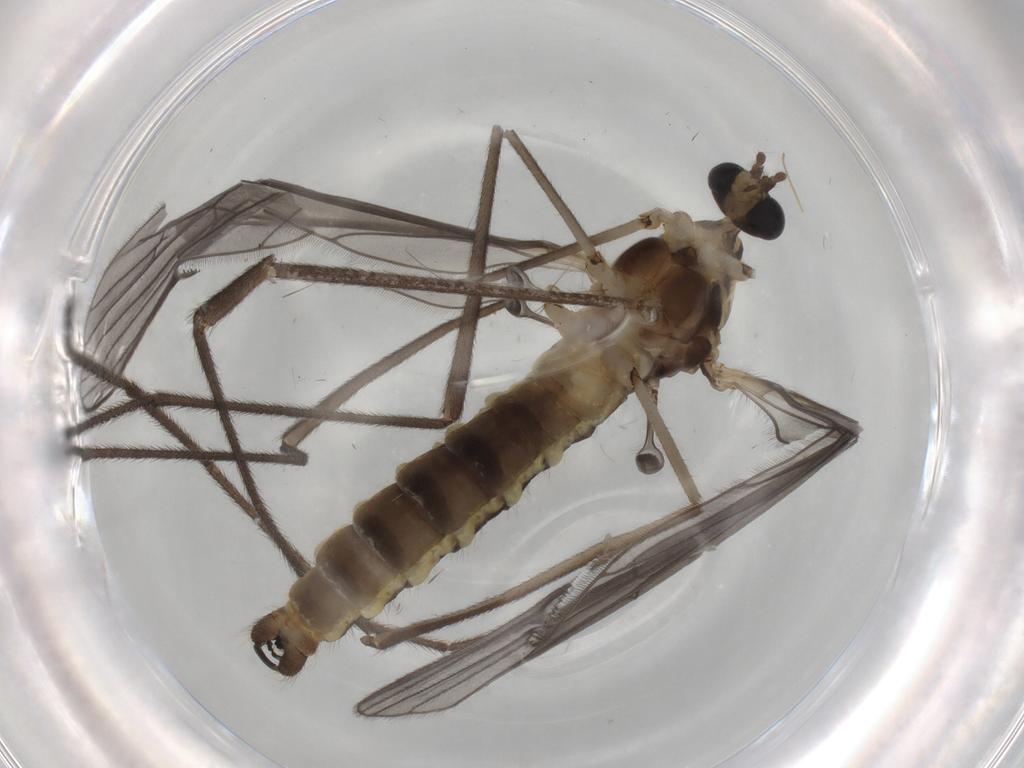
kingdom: Animalia
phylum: Arthropoda
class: Insecta
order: Diptera
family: Limoniidae
